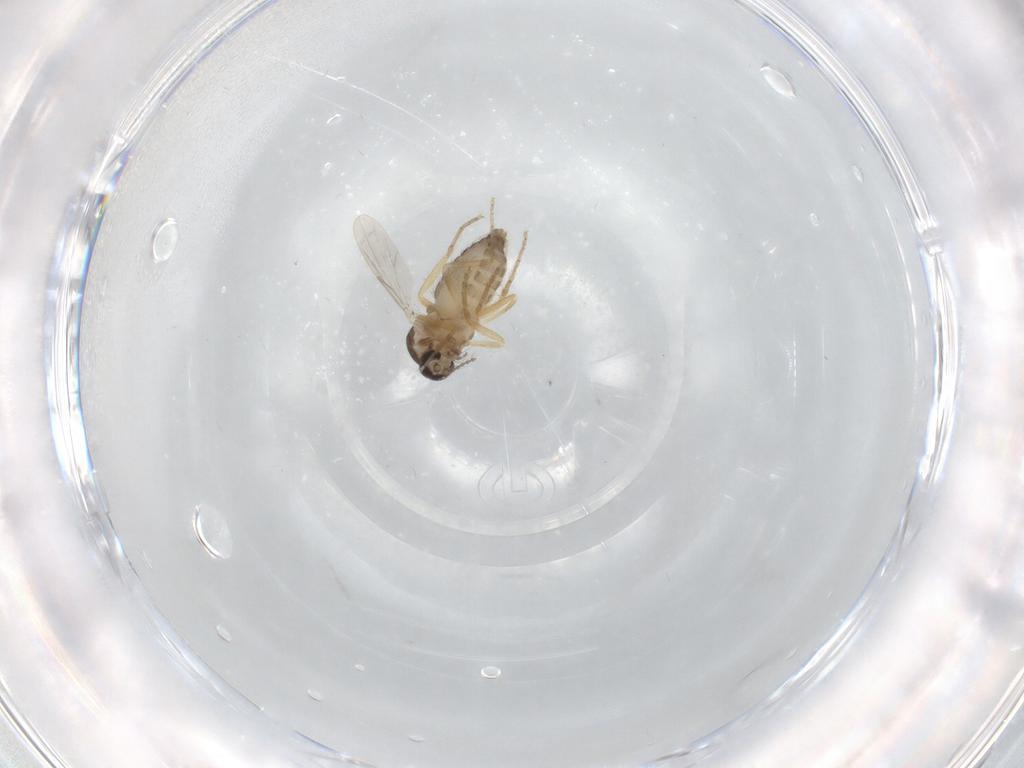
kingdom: Animalia
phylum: Arthropoda
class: Insecta
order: Diptera
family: Ceratopogonidae
